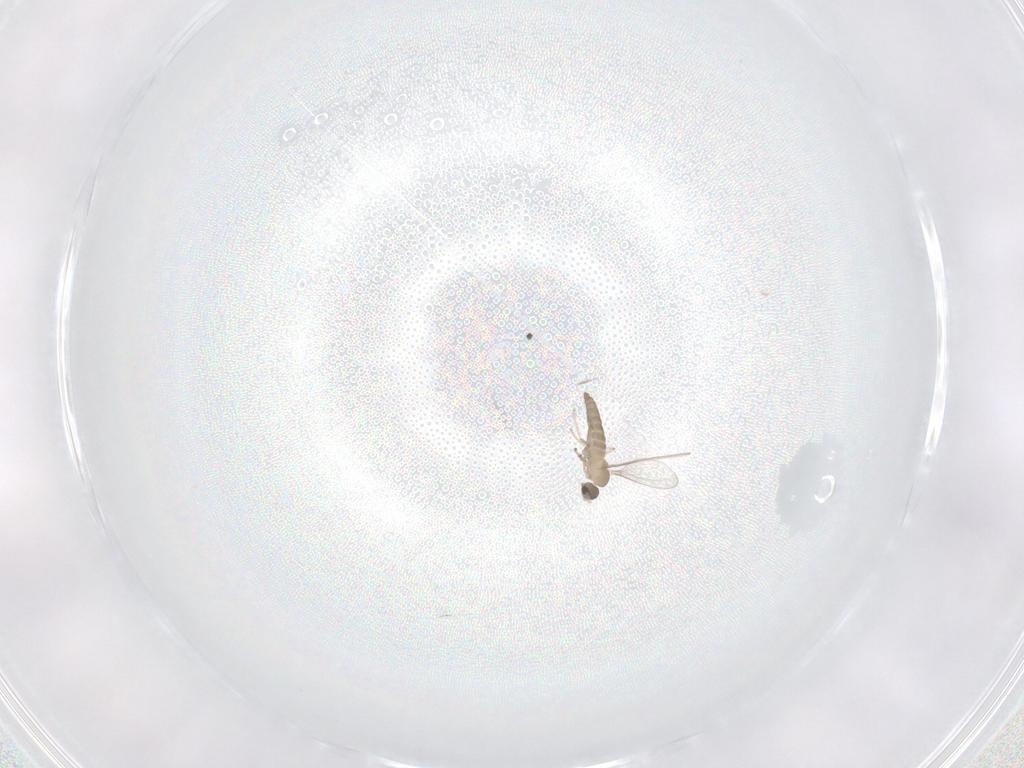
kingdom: Animalia
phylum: Arthropoda
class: Insecta
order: Diptera
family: Cecidomyiidae
